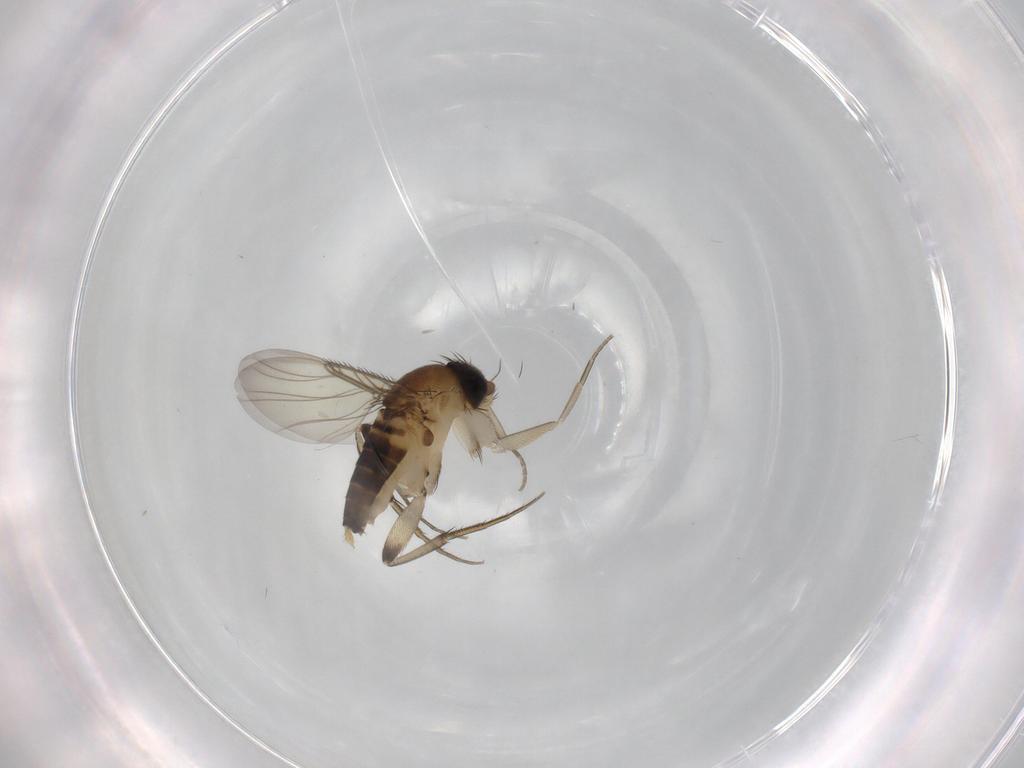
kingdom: Animalia
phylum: Arthropoda
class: Insecta
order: Diptera
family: Phoridae
